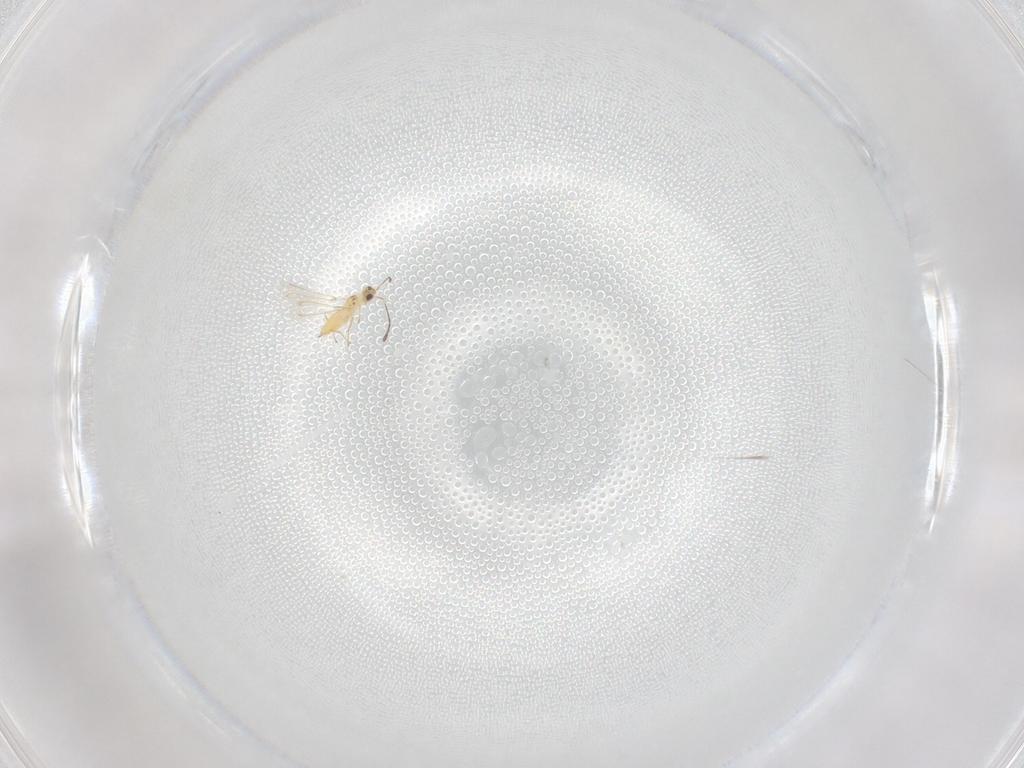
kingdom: Animalia
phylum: Arthropoda
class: Insecta
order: Hymenoptera
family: Mymaridae
